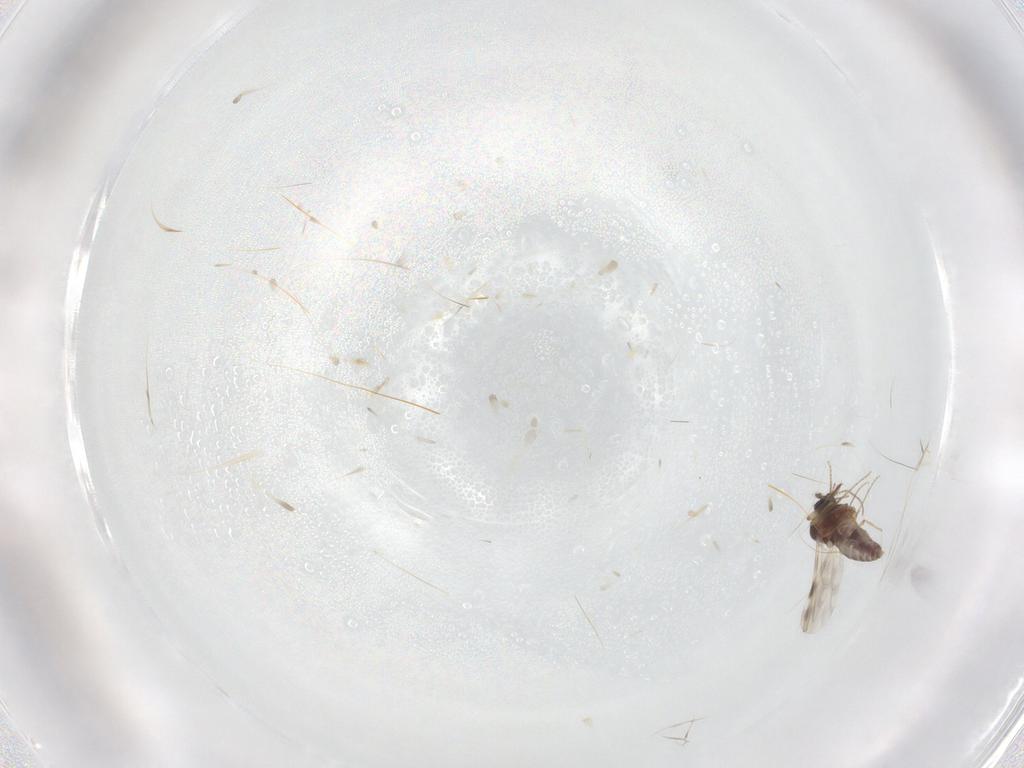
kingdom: Animalia
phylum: Arthropoda
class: Insecta
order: Diptera
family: Ceratopogonidae
